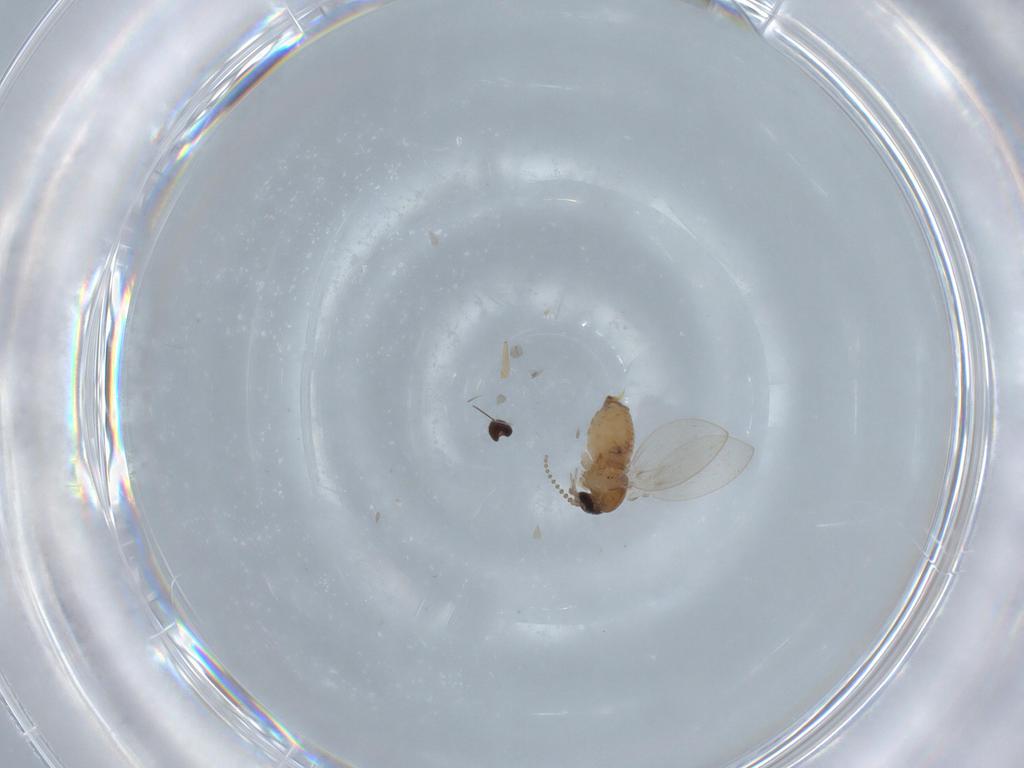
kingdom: Animalia
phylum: Arthropoda
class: Insecta
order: Diptera
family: Psychodidae
